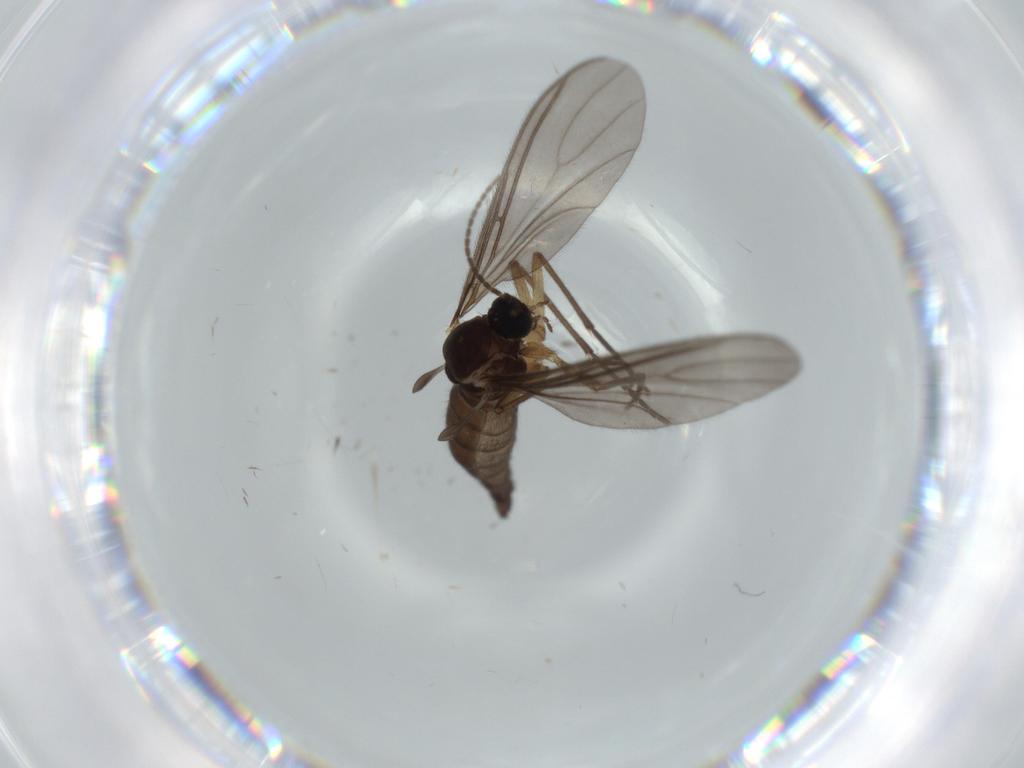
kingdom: Animalia
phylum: Arthropoda
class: Insecta
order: Diptera
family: Sciaridae
